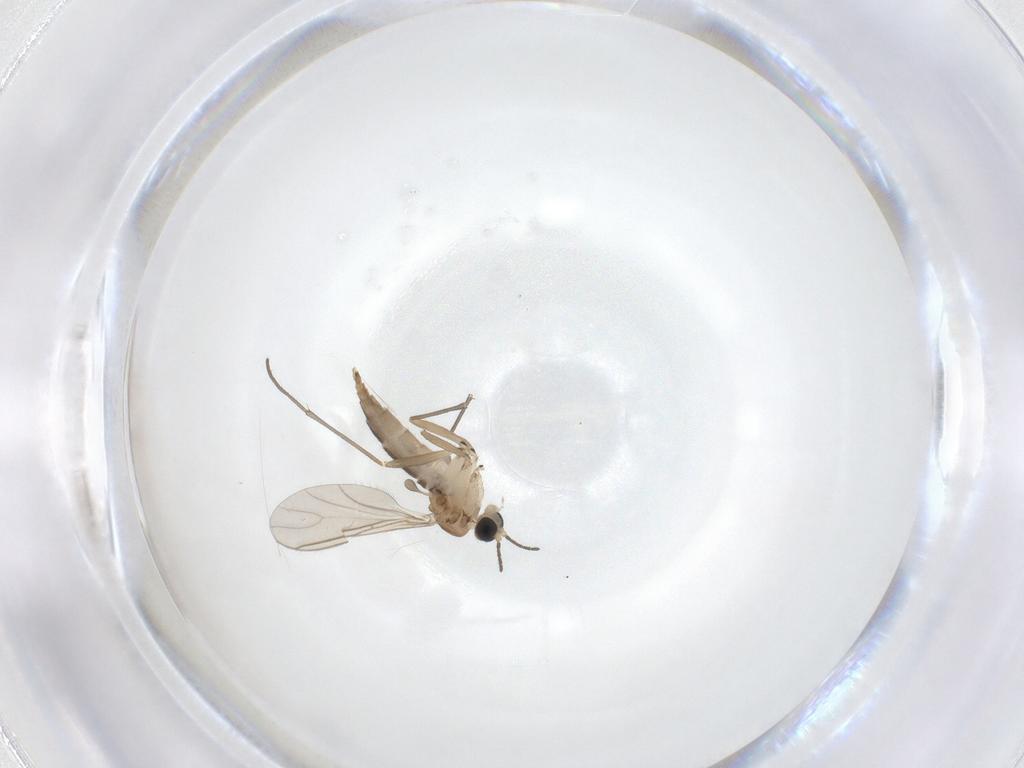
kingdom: Animalia
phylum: Arthropoda
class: Insecta
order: Diptera
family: Sciaridae
